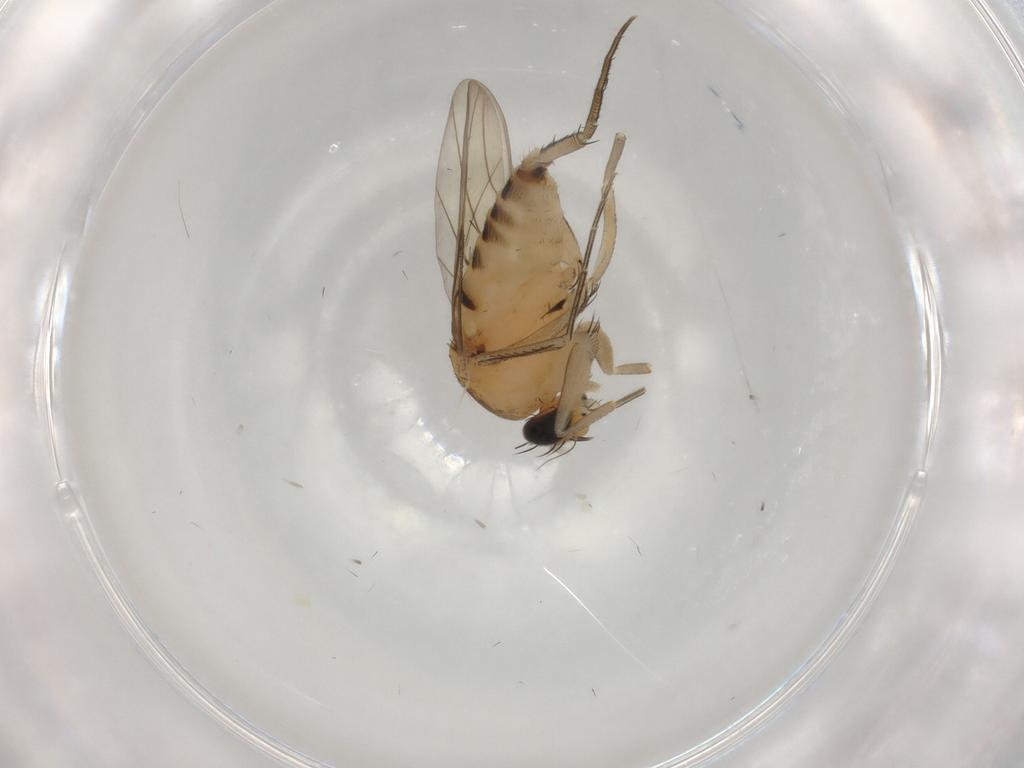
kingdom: Animalia
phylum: Arthropoda
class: Insecta
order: Diptera
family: Phoridae
